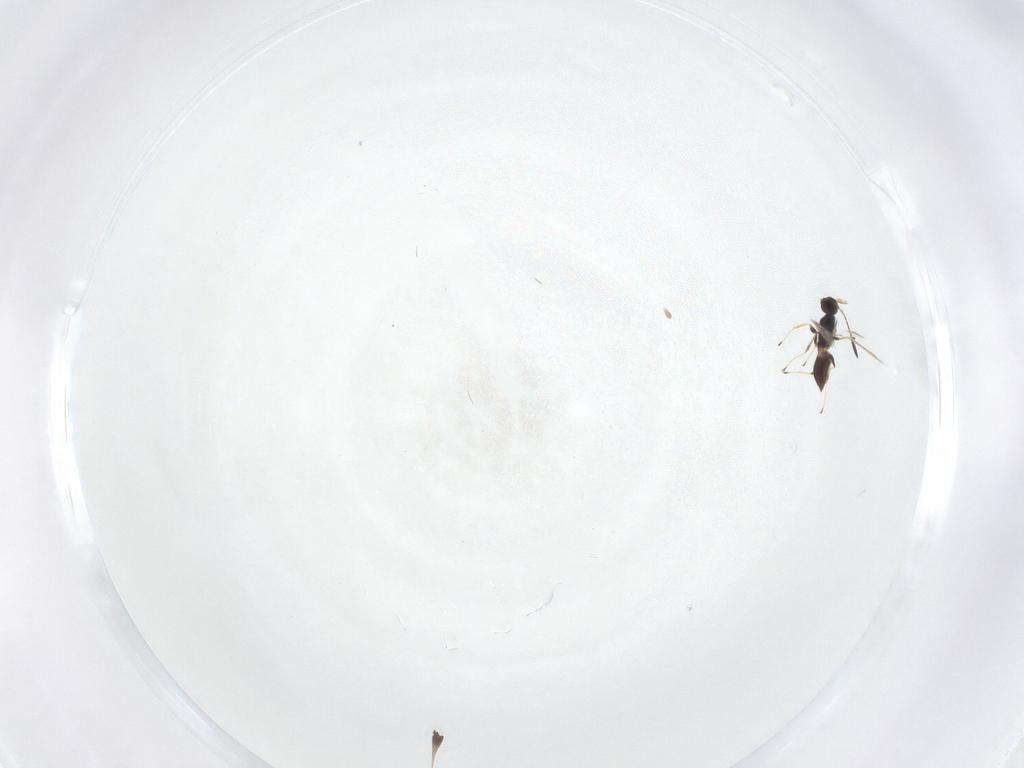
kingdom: Animalia
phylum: Arthropoda
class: Insecta
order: Hymenoptera
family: Mymaridae
